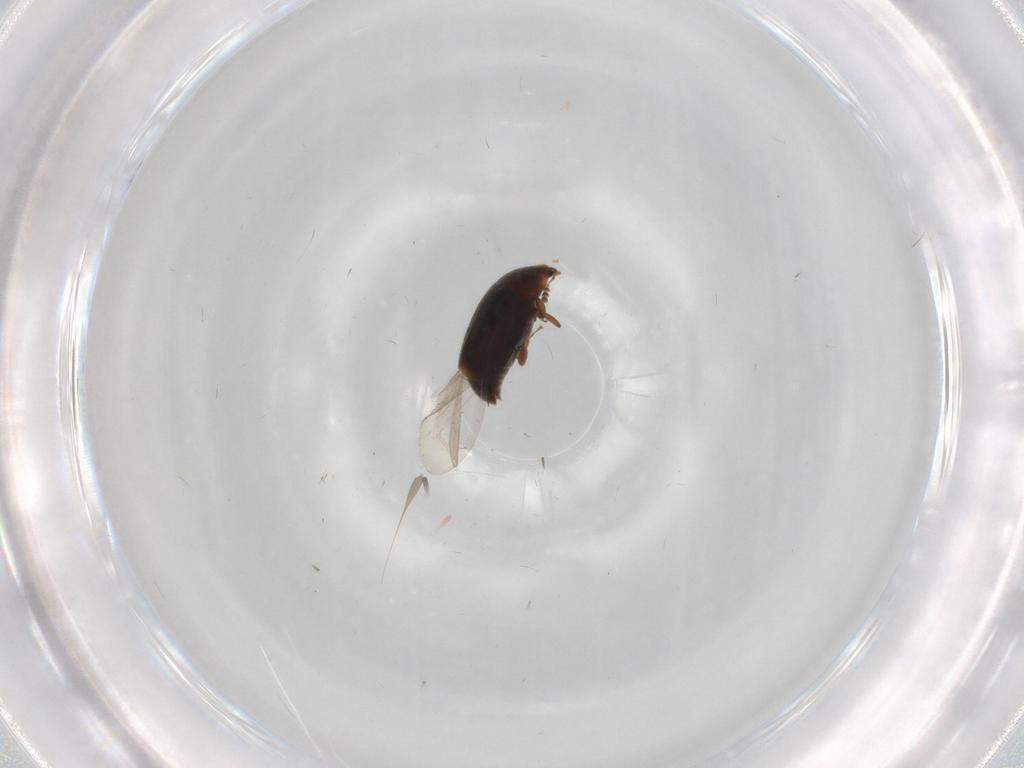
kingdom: Animalia
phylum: Arthropoda
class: Insecta
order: Coleoptera
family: Corylophidae
